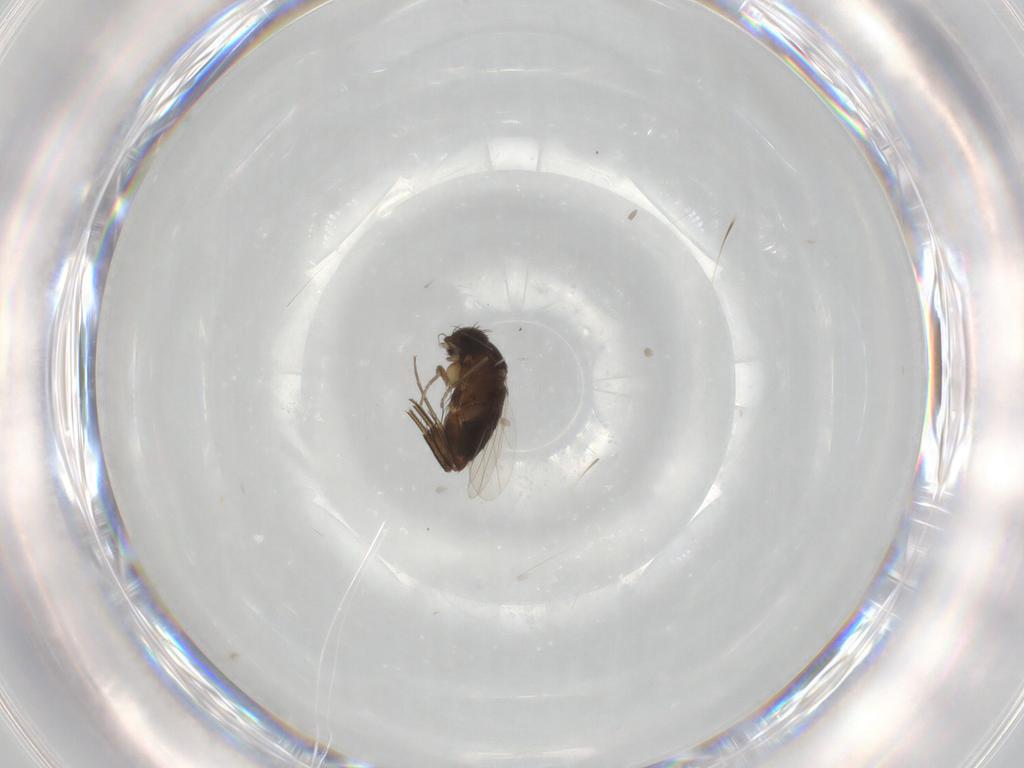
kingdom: Animalia
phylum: Arthropoda
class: Insecta
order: Diptera
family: Phoridae
